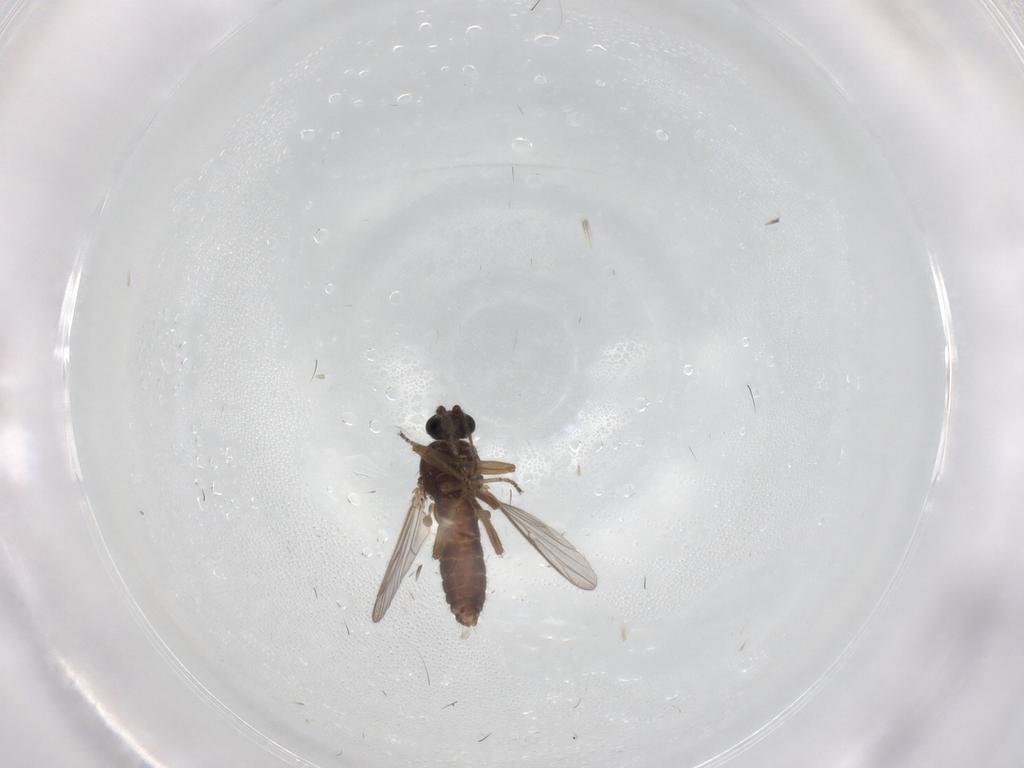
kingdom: Animalia
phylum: Arthropoda
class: Insecta
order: Diptera
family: Ceratopogonidae
